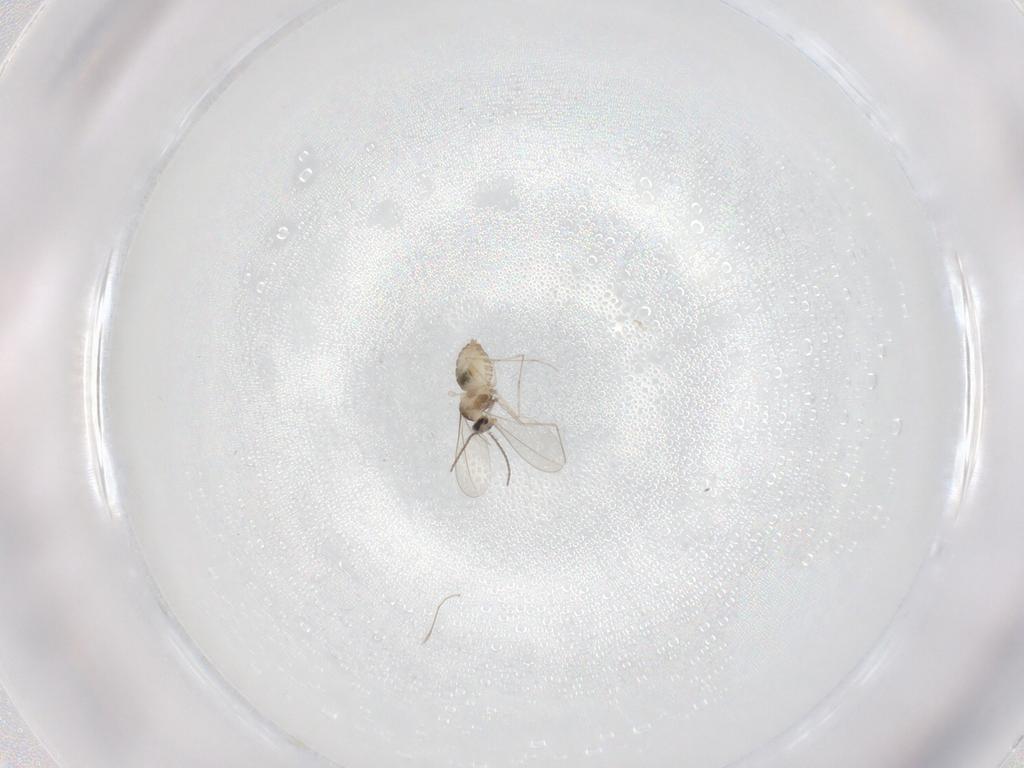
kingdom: Animalia
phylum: Arthropoda
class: Insecta
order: Diptera
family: Cecidomyiidae
